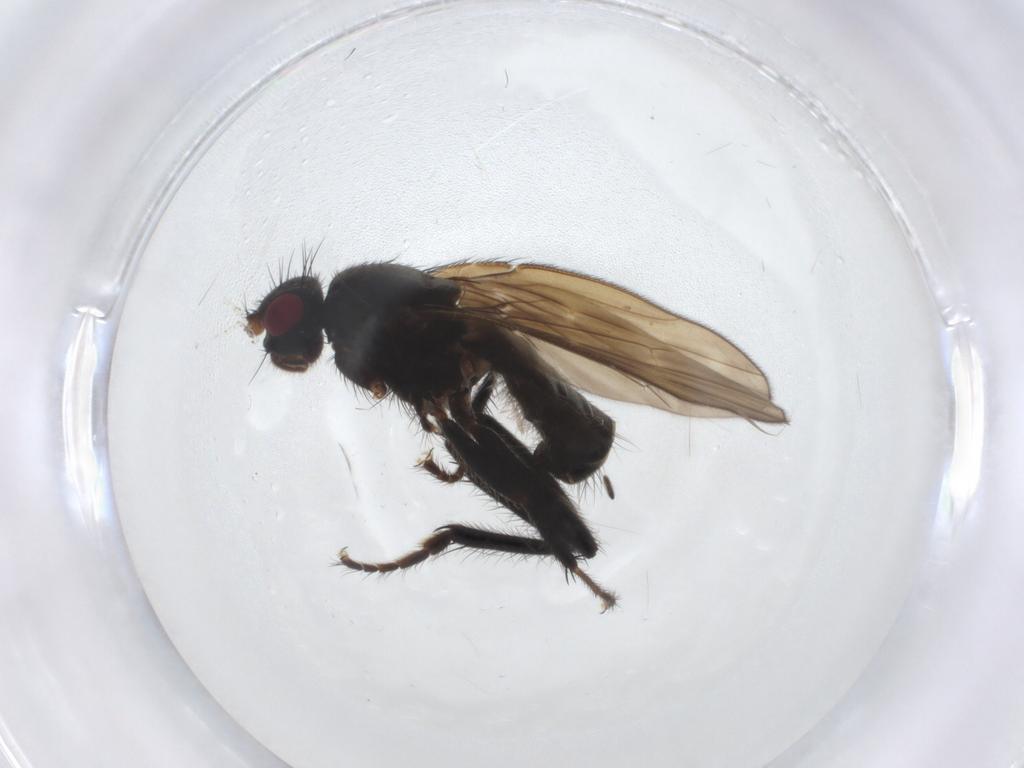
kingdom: Animalia
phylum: Arthropoda
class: Insecta
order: Diptera
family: Sphaeroceridae
